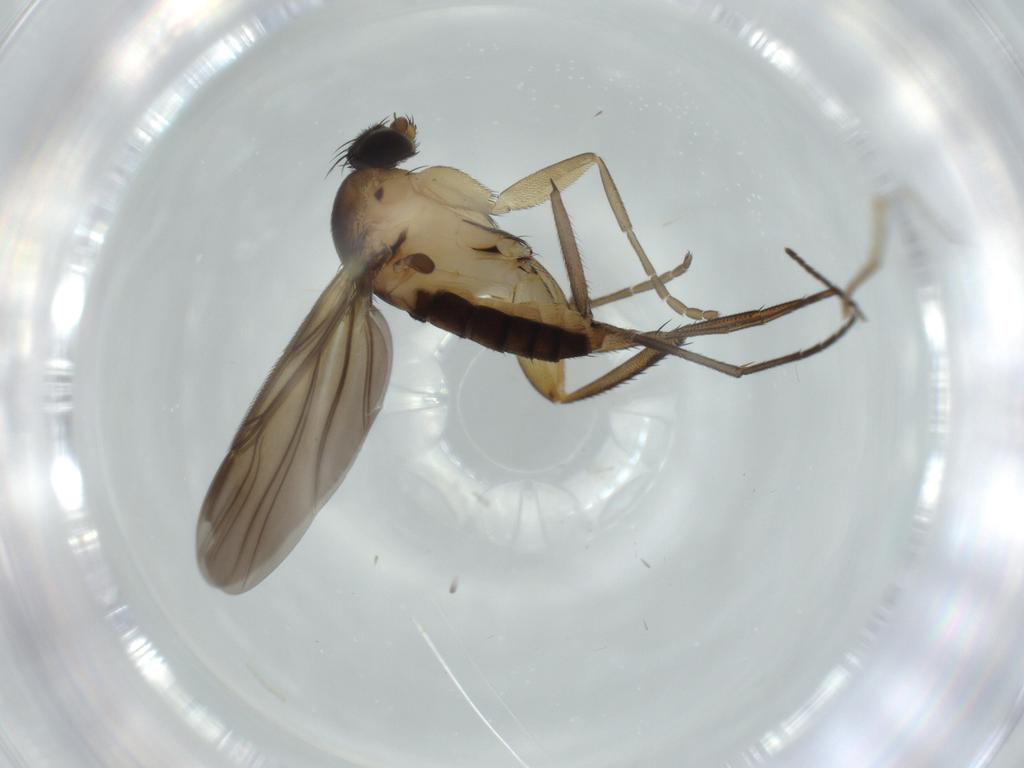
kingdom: Animalia
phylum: Arthropoda
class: Insecta
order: Diptera
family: Phoridae
